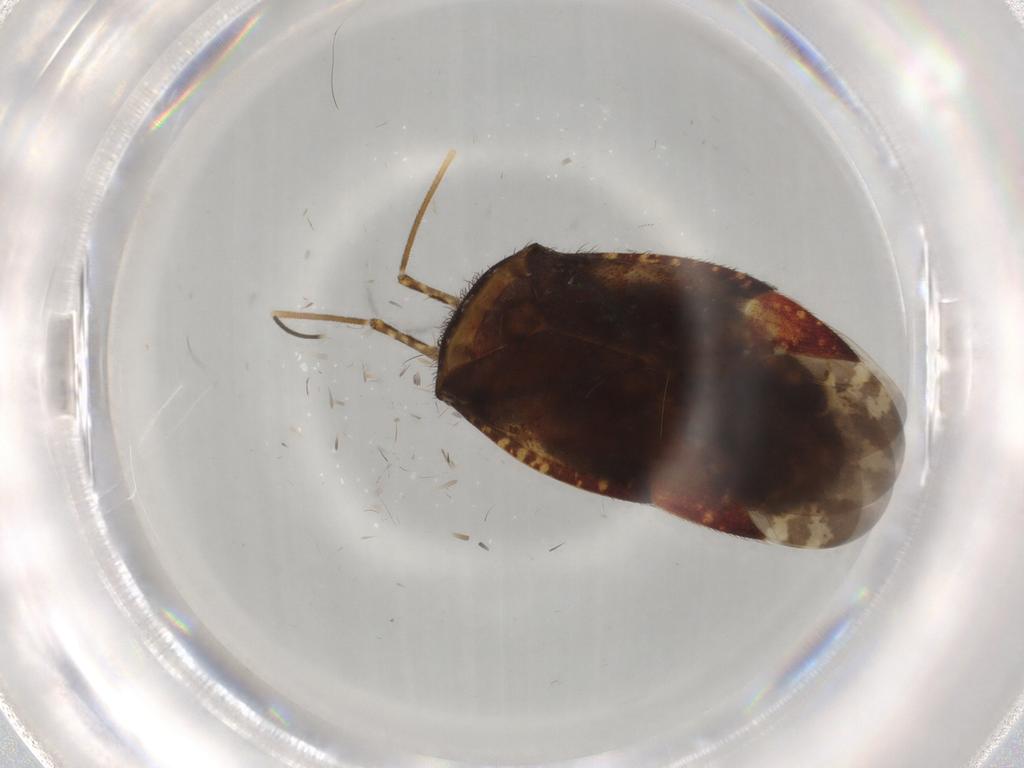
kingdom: Animalia
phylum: Arthropoda
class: Insecta
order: Hemiptera
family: Miridae
